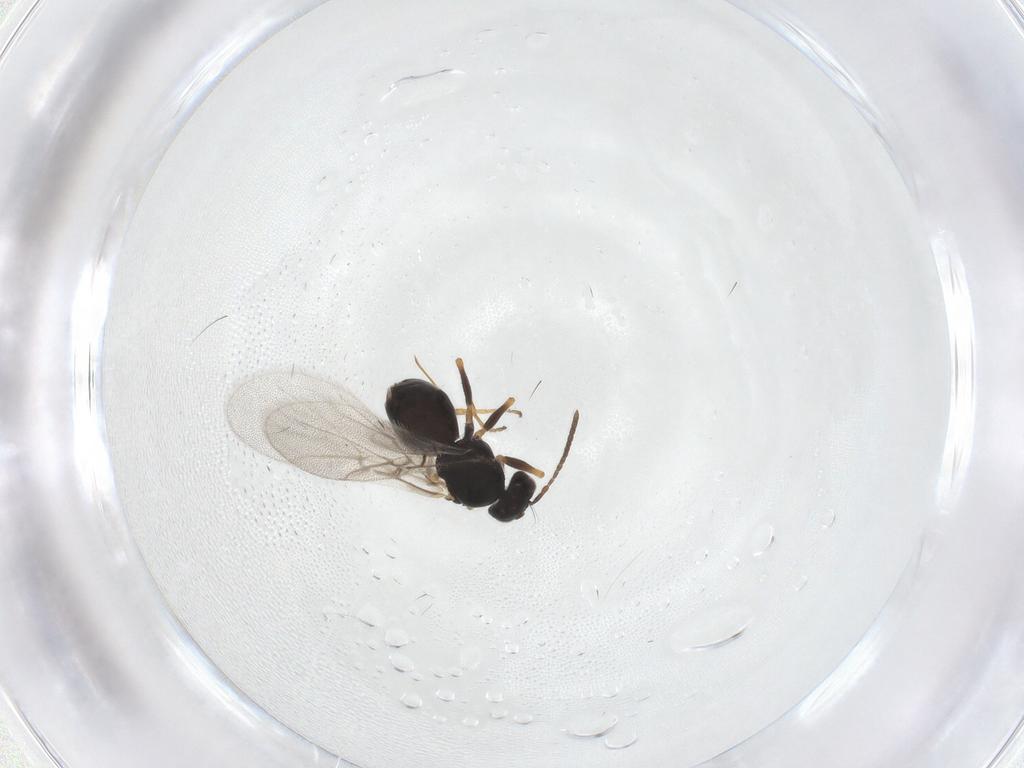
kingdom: Animalia
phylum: Arthropoda
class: Insecta
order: Hymenoptera
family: Cynipidae
